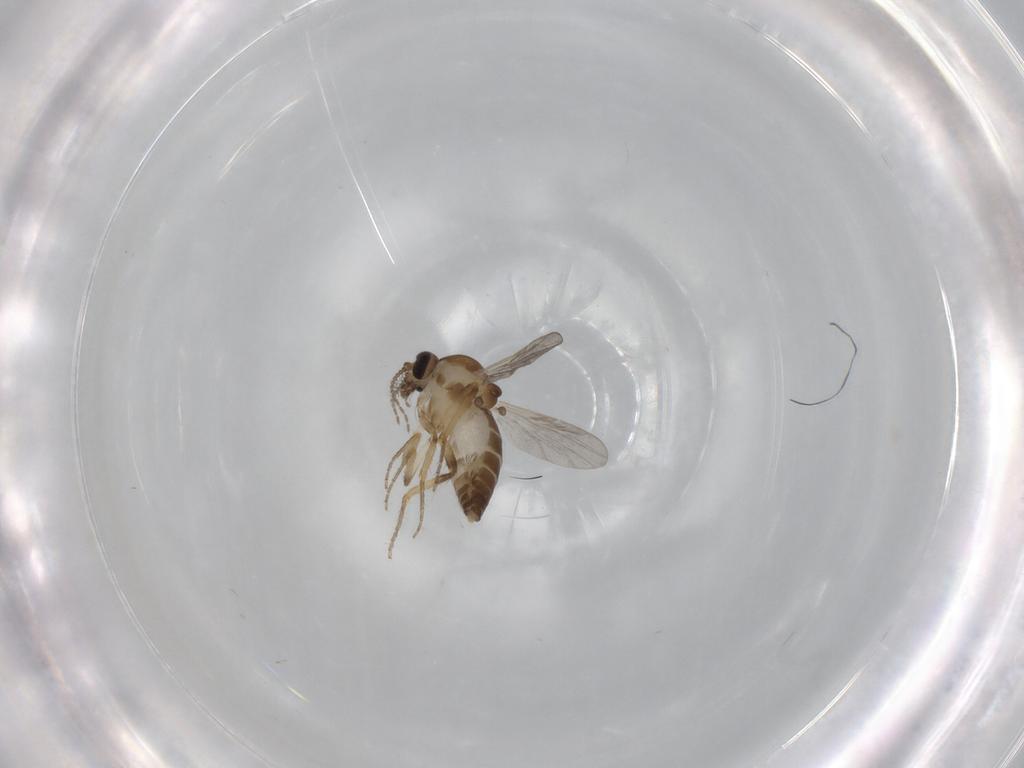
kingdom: Animalia
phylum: Arthropoda
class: Insecta
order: Diptera
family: Ceratopogonidae
